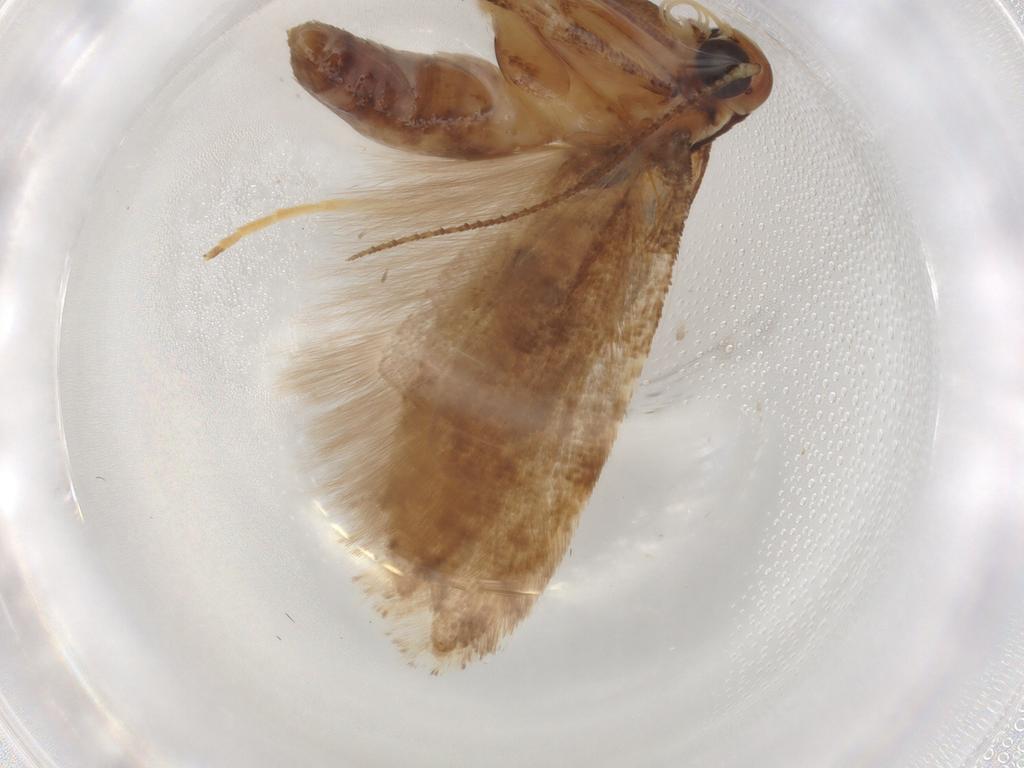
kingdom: Animalia
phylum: Arthropoda
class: Insecta
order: Lepidoptera
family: Gelechiidae
